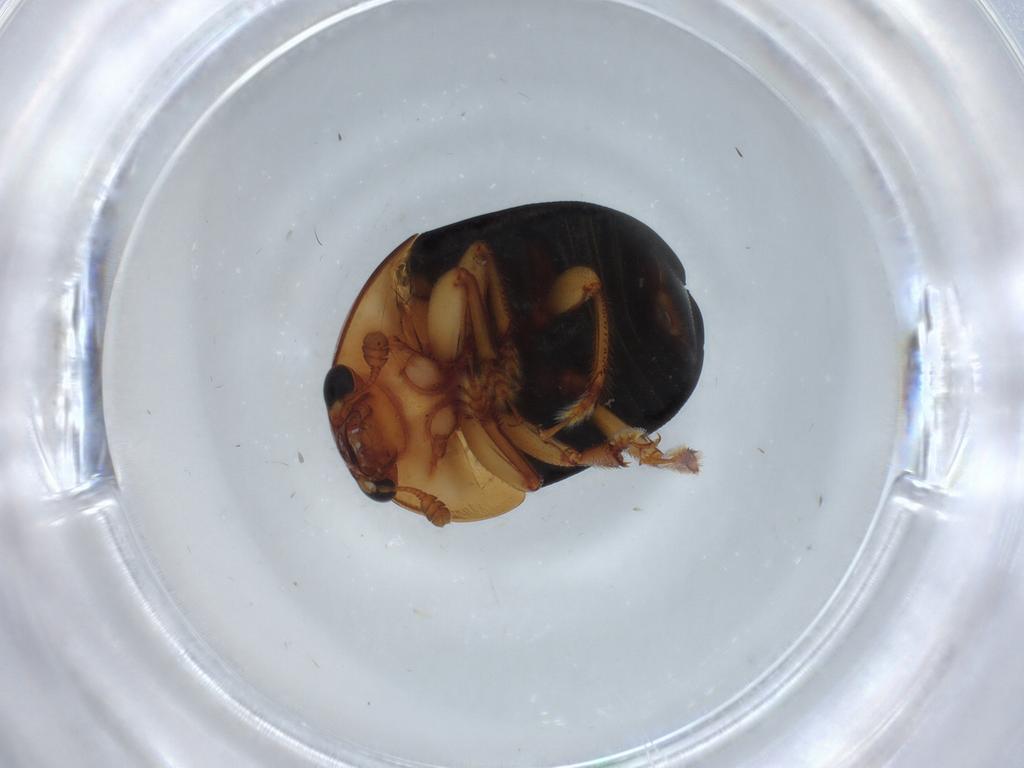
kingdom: Animalia
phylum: Arthropoda
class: Insecta
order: Coleoptera
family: Nitidulidae
